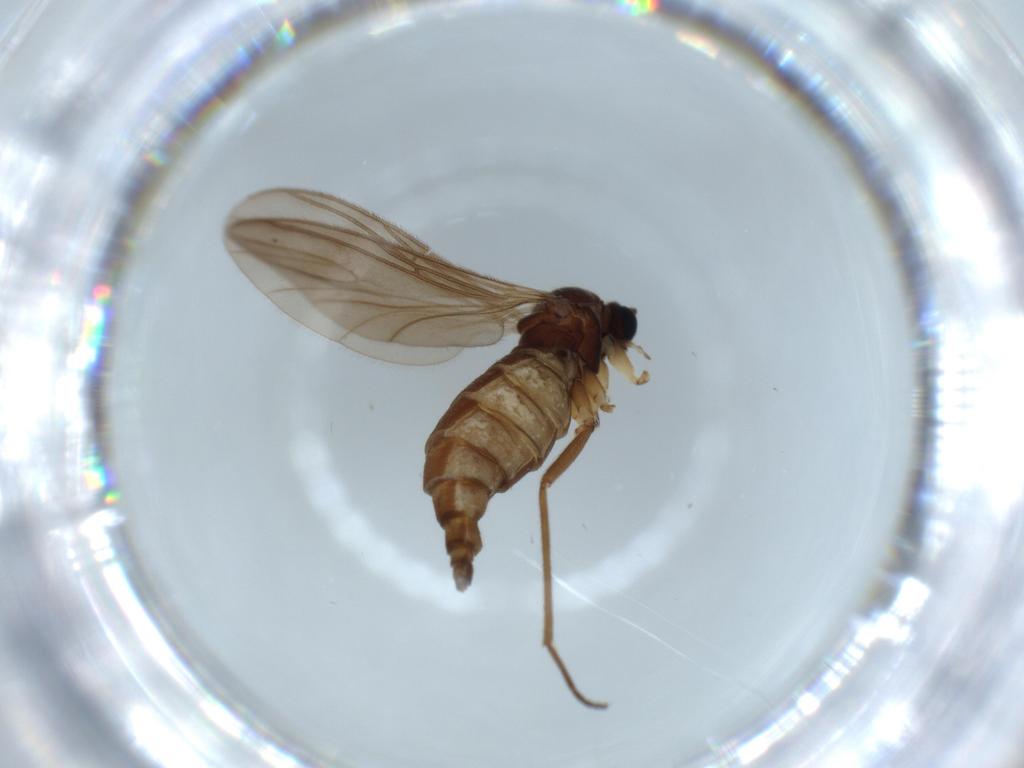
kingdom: Animalia
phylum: Arthropoda
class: Insecta
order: Diptera
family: Sciaridae
